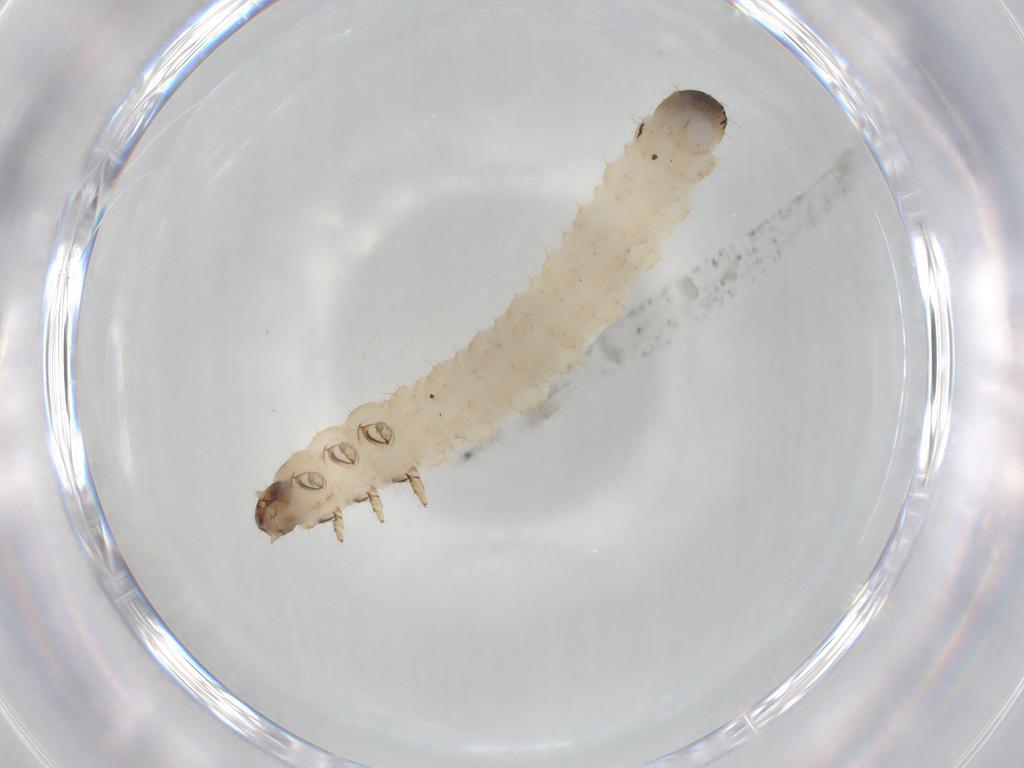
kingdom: Animalia
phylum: Arthropoda
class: Insecta
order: Coleoptera
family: Chrysomelidae
